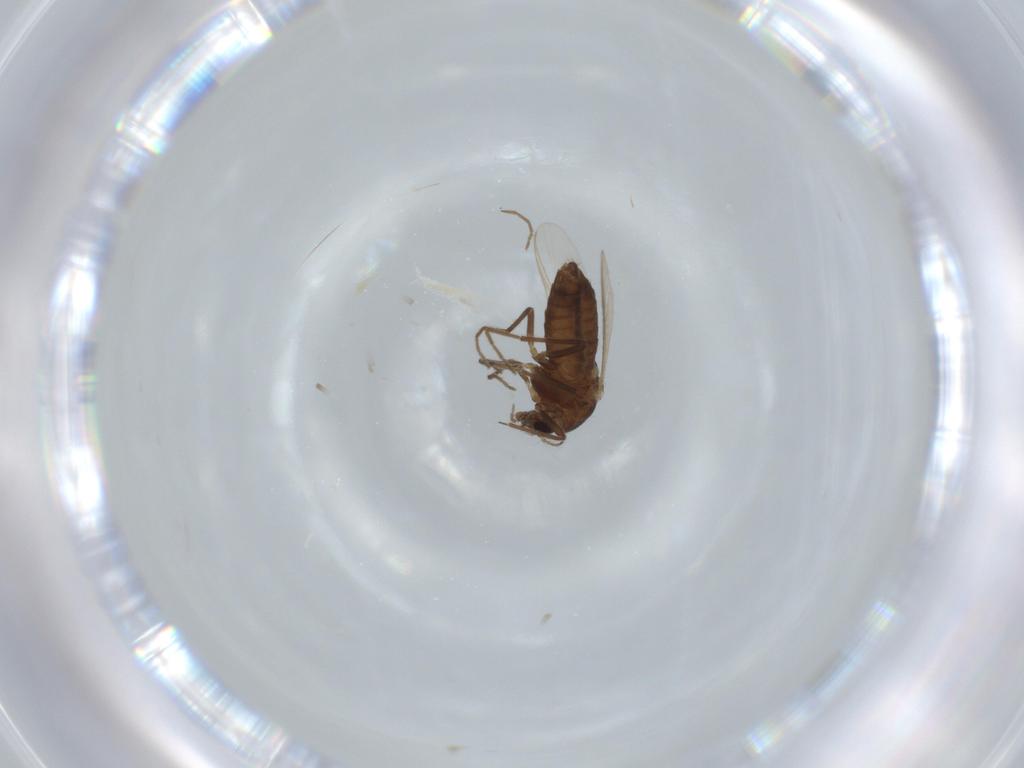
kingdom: Animalia
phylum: Arthropoda
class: Insecta
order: Diptera
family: Chironomidae
